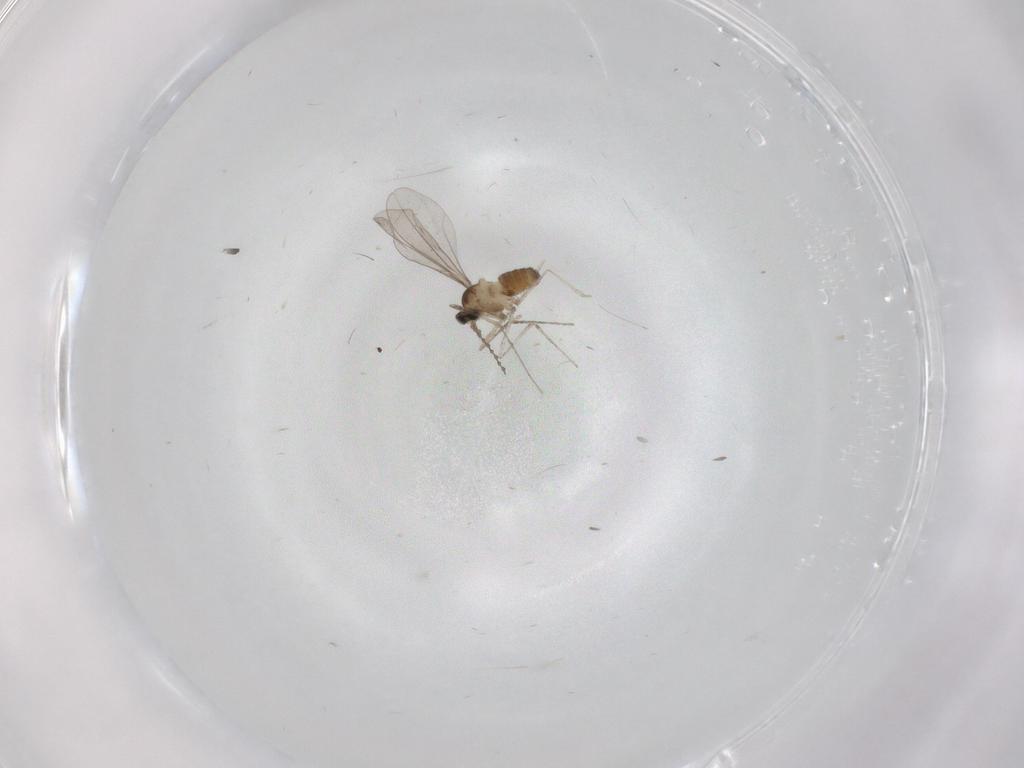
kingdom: Animalia
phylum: Arthropoda
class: Insecta
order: Diptera
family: Cecidomyiidae
